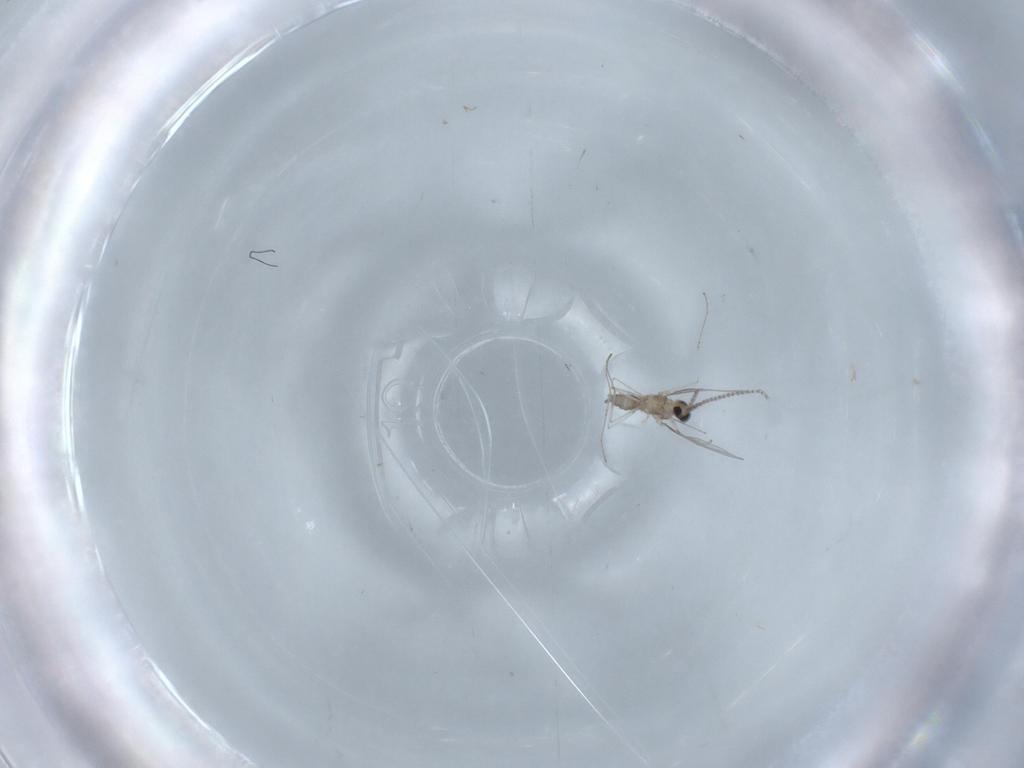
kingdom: Animalia
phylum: Arthropoda
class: Insecta
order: Diptera
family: Cecidomyiidae
